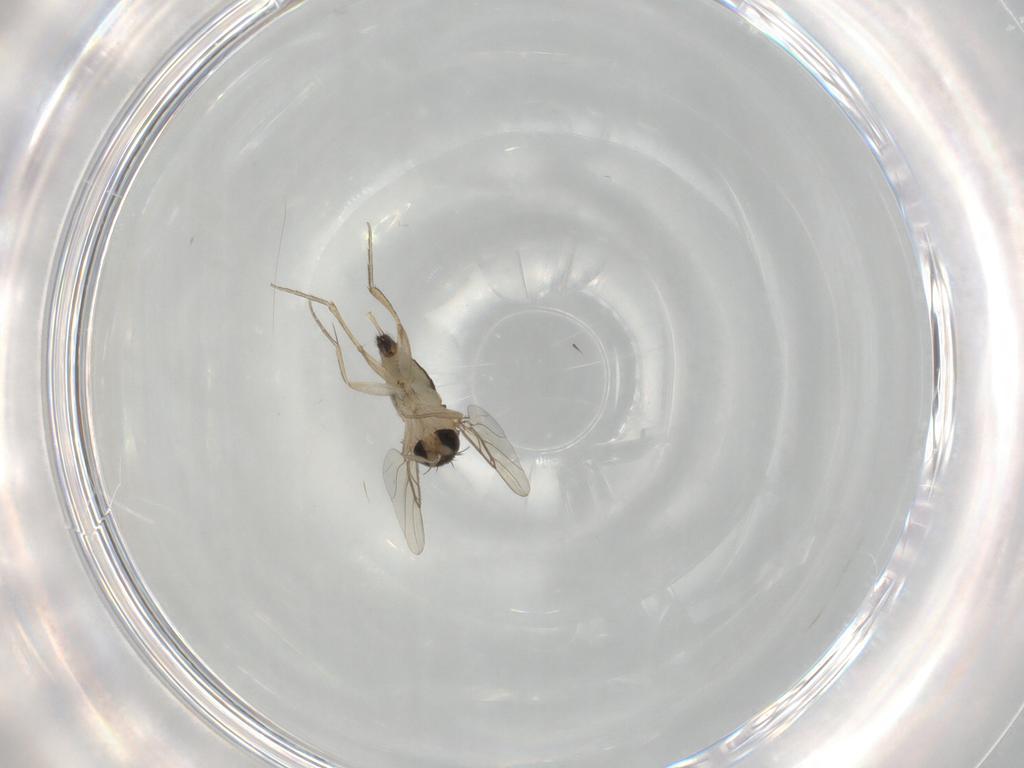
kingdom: Animalia
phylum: Arthropoda
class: Insecta
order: Diptera
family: Phoridae
